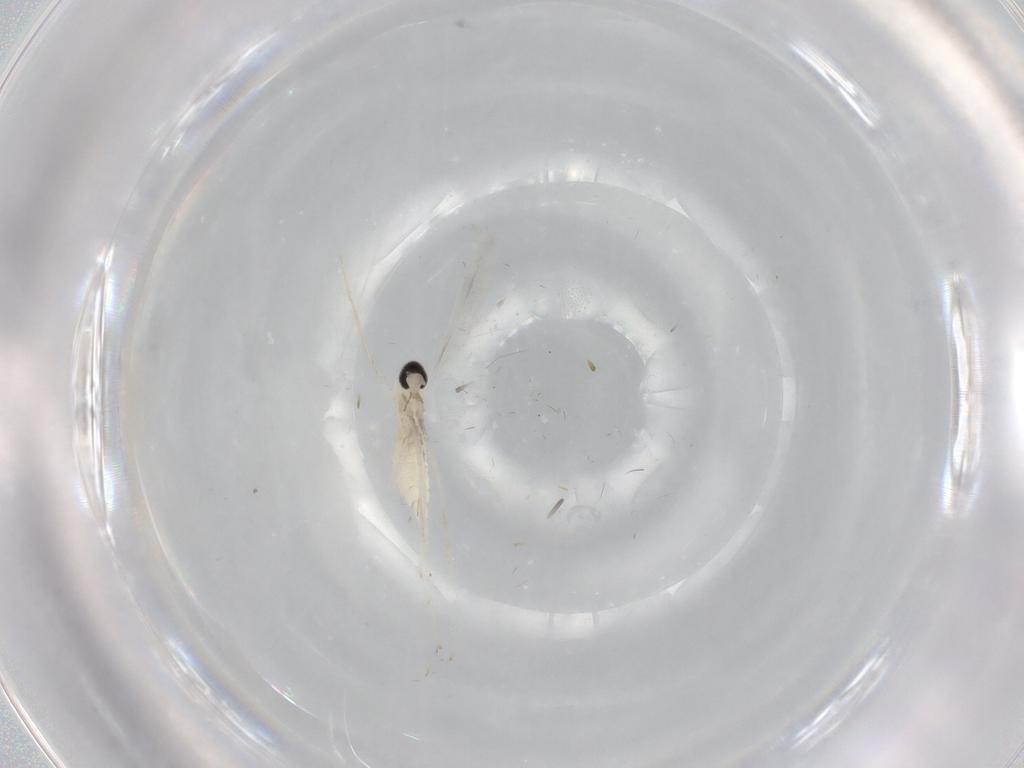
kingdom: Animalia
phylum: Arthropoda
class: Insecta
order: Diptera
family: Cecidomyiidae
